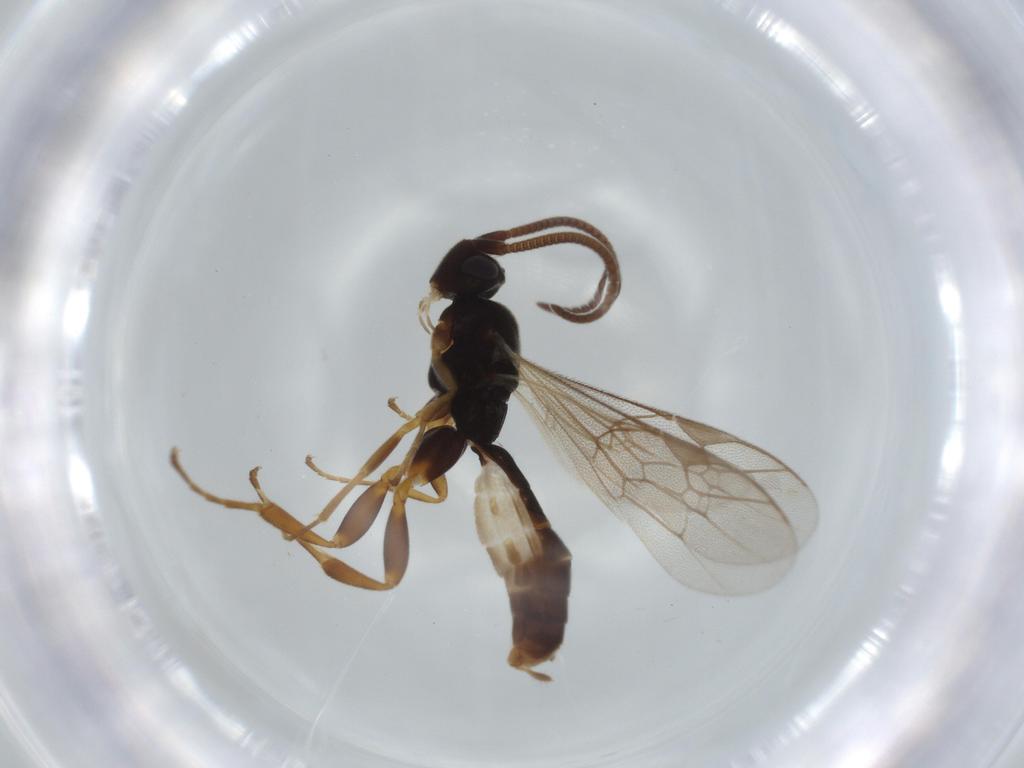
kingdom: Animalia
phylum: Arthropoda
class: Insecta
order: Hymenoptera
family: Ichneumonidae
